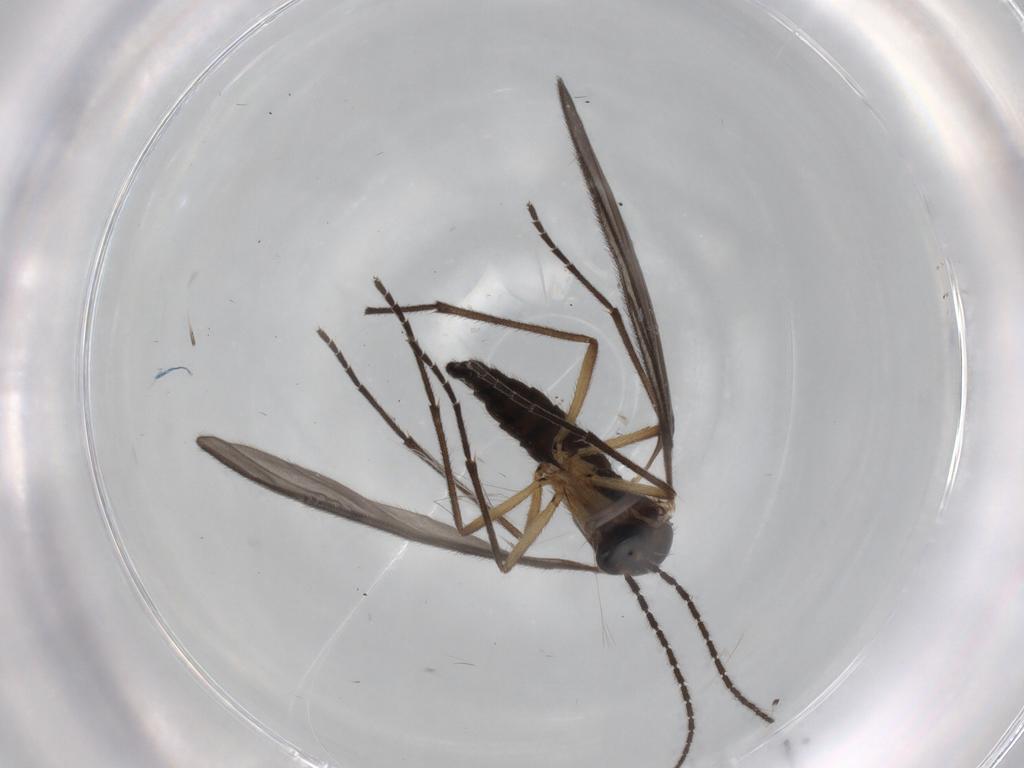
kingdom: Animalia
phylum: Arthropoda
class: Insecta
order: Diptera
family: Sciaridae
